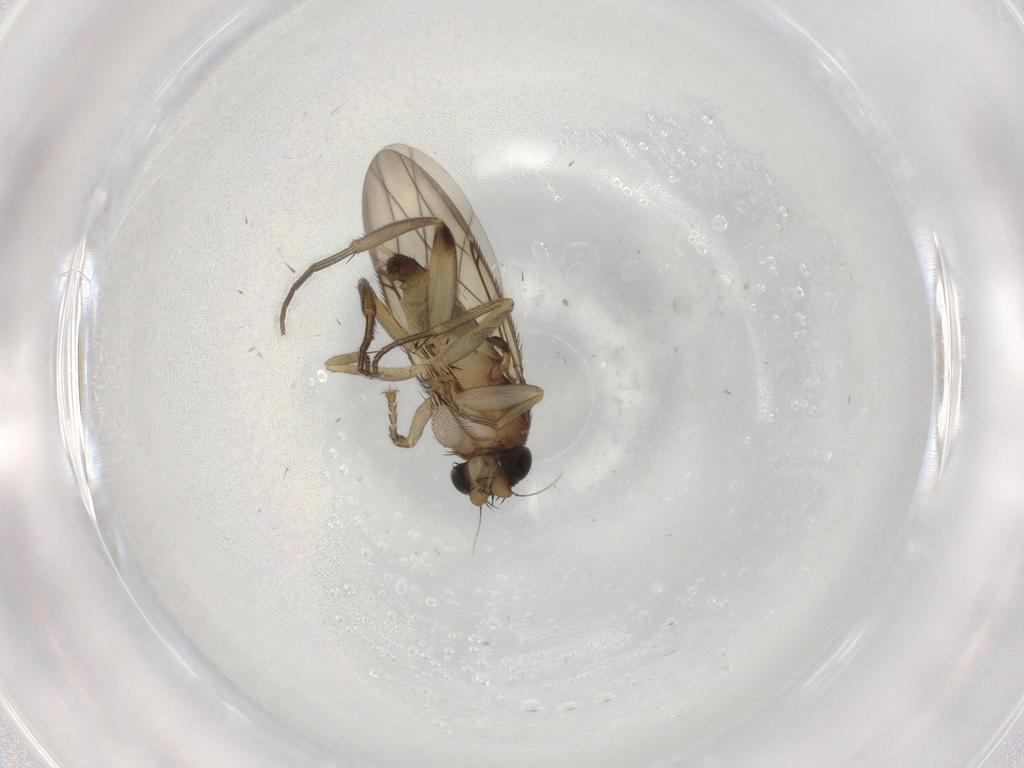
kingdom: Animalia
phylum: Arthropoda
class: Insecta
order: Diptera
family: Phoridae
